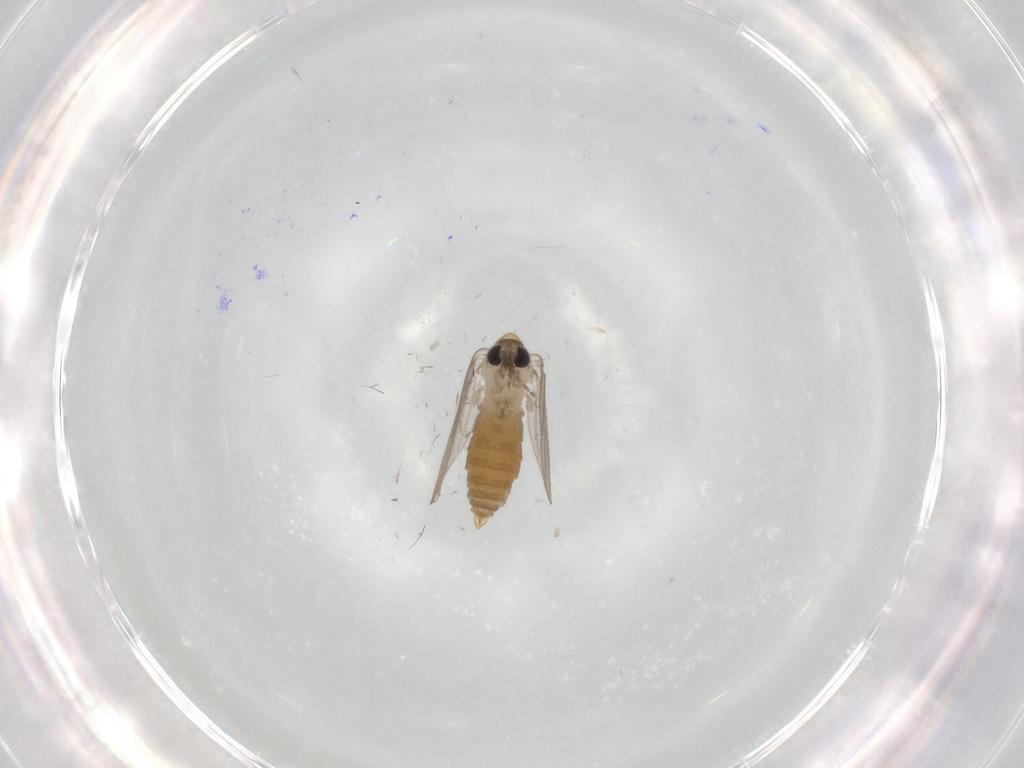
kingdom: Animalia
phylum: Arthropoda
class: Insecta
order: Diptera
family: Psychodidae
